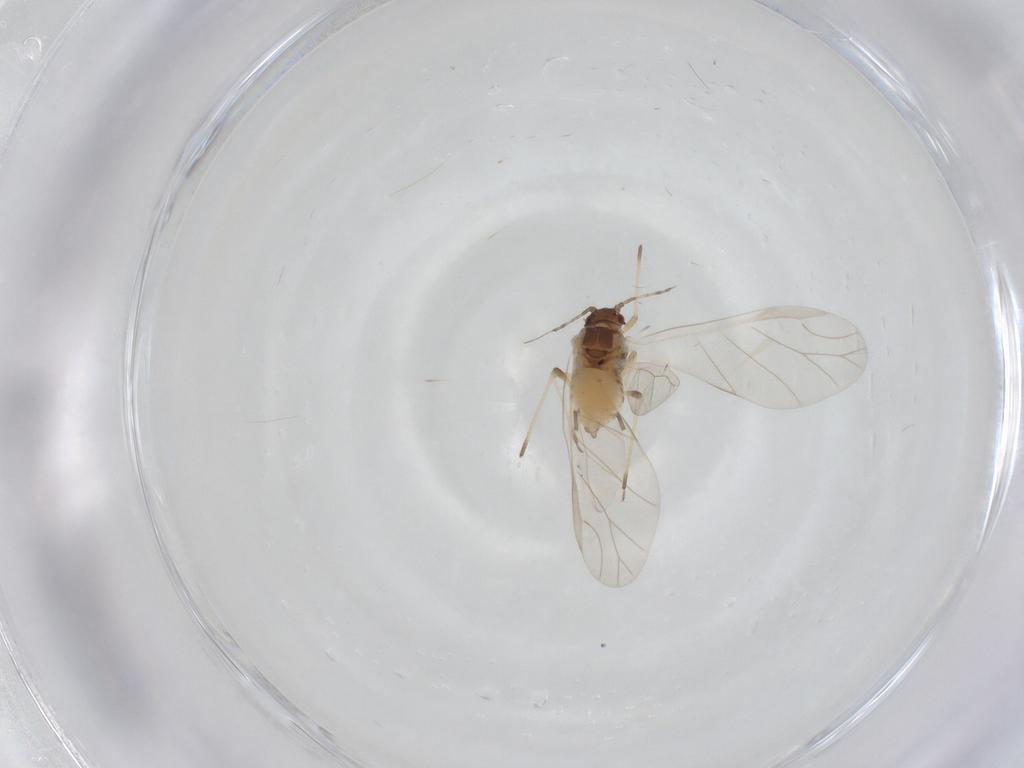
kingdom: Animalia
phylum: Arthropoda
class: Insecta
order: Hemiptera
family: Aphididae
